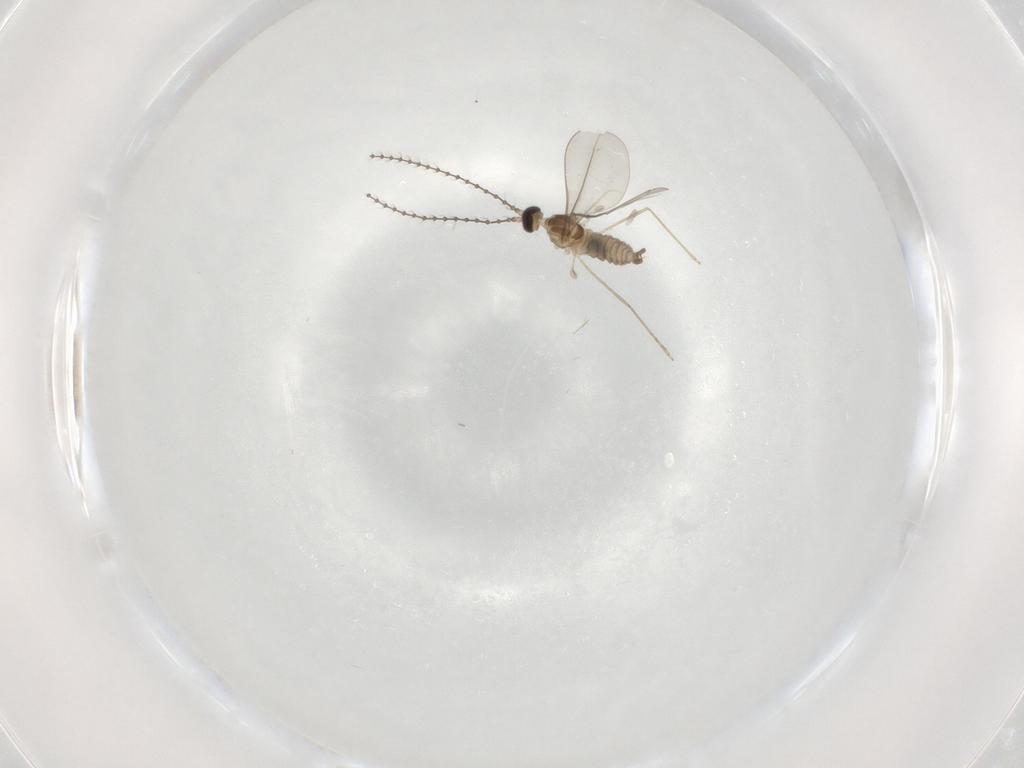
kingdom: Animalia
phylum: Arthropoda
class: Insecta
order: Diptera
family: Cecidomyiidae
